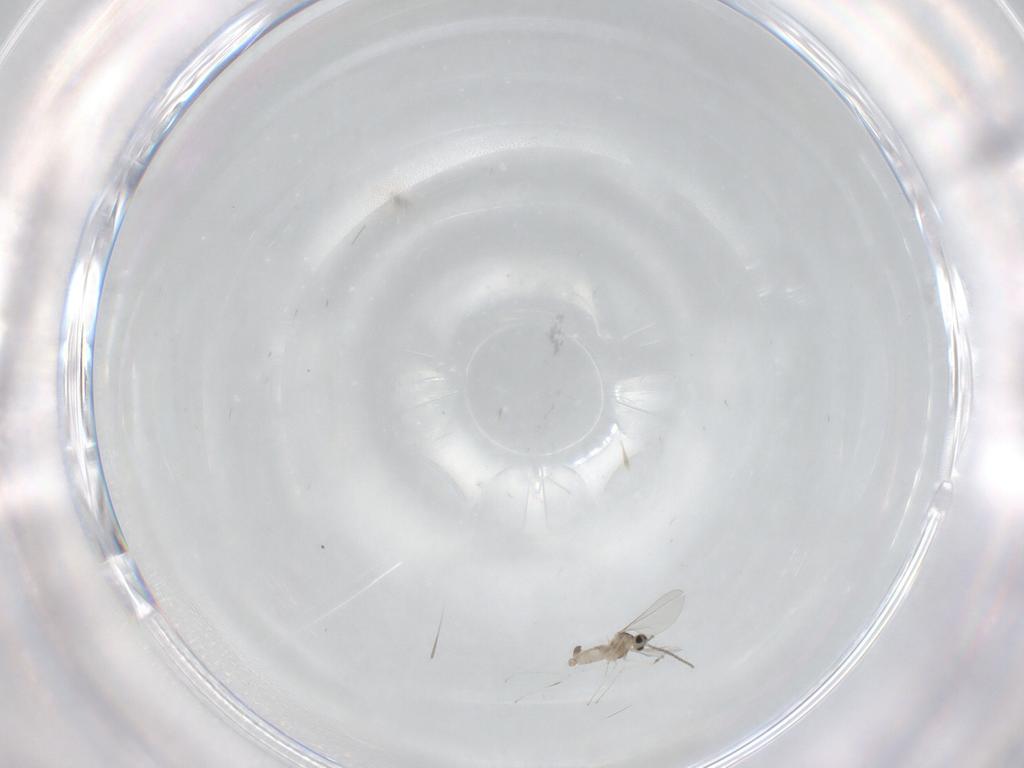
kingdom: Animalia
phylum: Arthropoda
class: Insecta
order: Diptera
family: Cecidomyiidae
